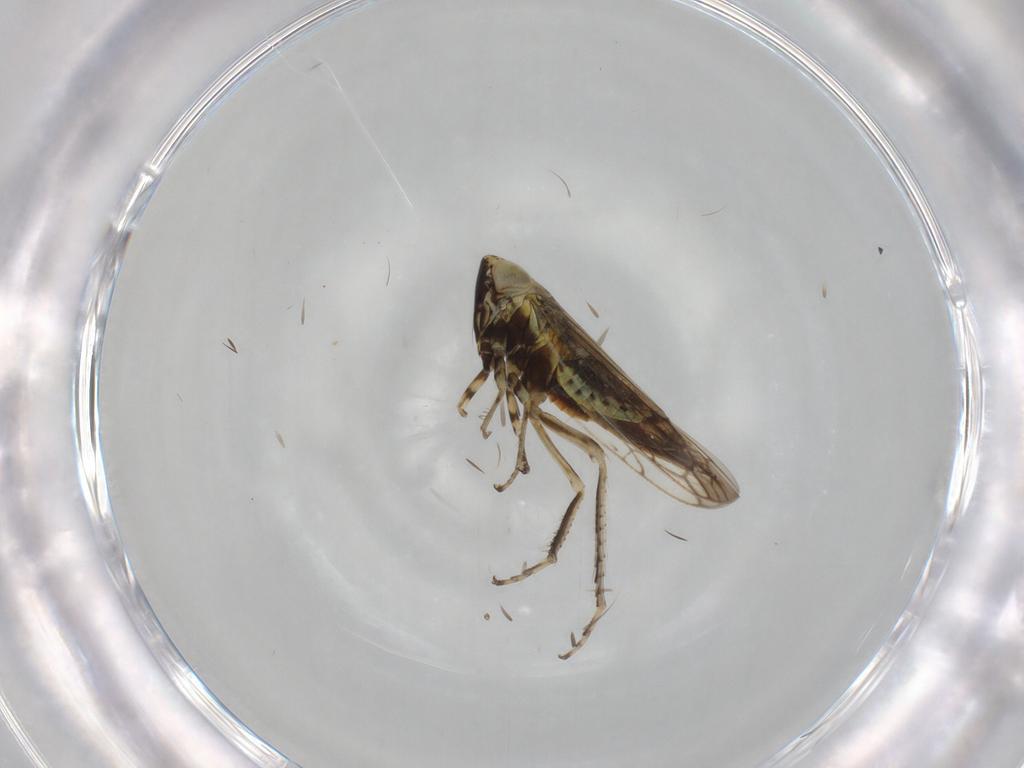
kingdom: Animalia
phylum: Arthropoda
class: Insecta
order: Hemiptera
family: Cicadellidae
